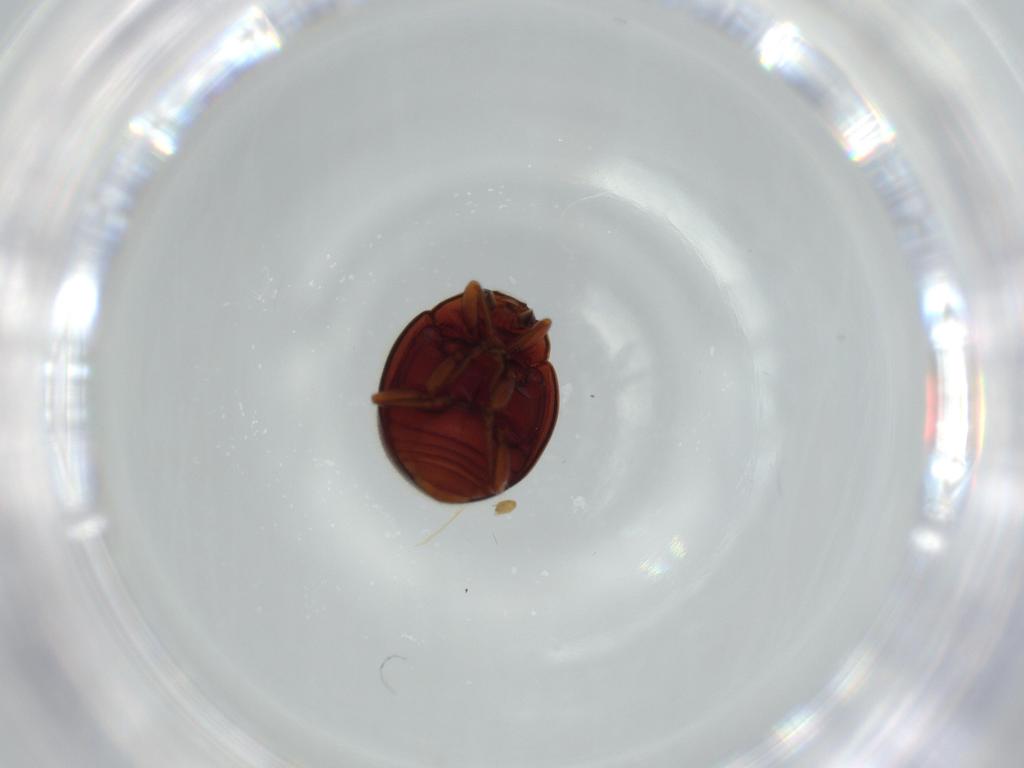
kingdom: Animalia
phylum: Arthropoda
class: Insecta
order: Coleoptera
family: Coccinellidae
